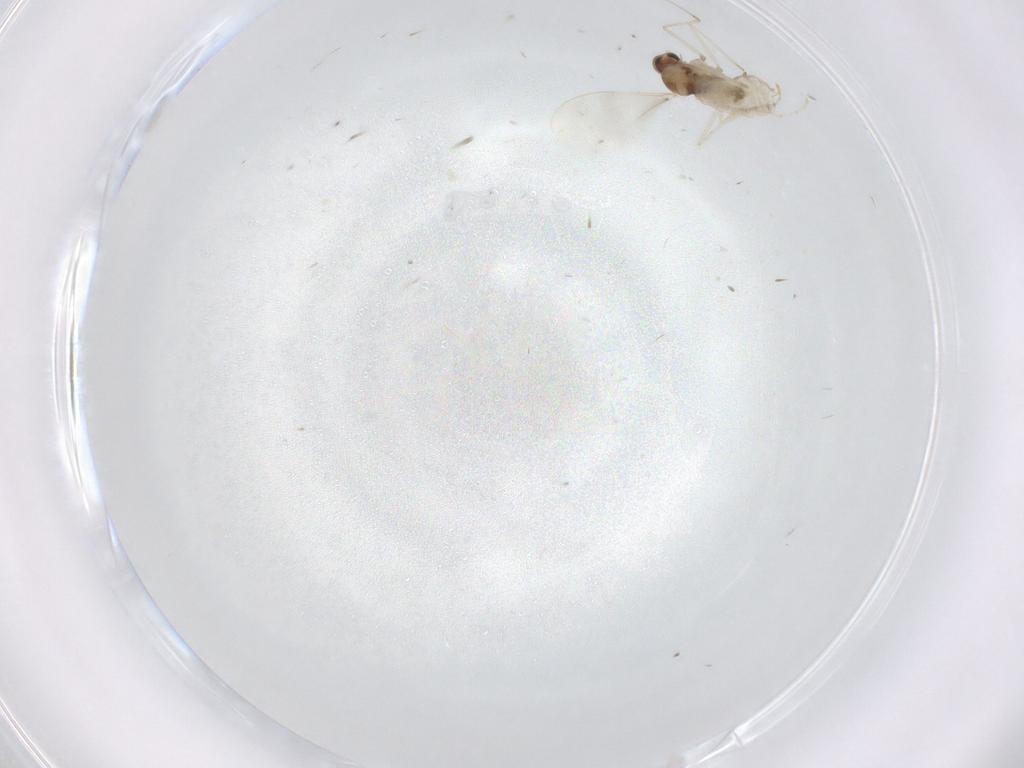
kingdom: Animalia
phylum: Arthropoda
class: Insecta
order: Diptera
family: Cecidomyiidae
